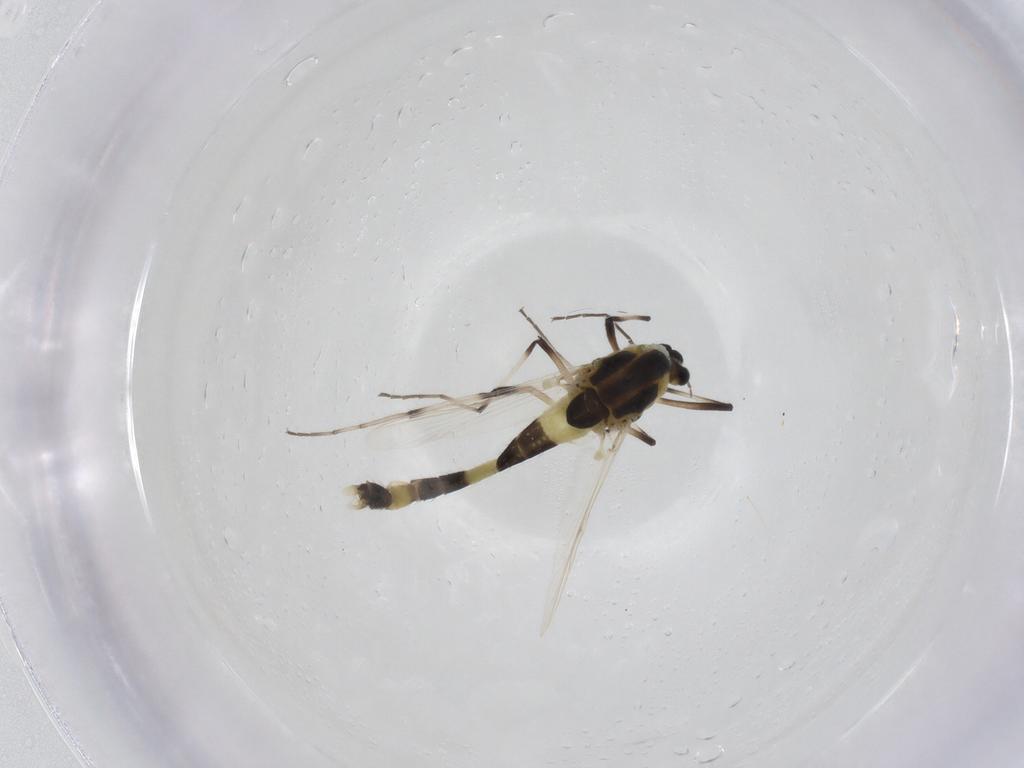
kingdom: Animalia
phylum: Arthropoda
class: Insecta
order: Diptera
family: Chironomidae
